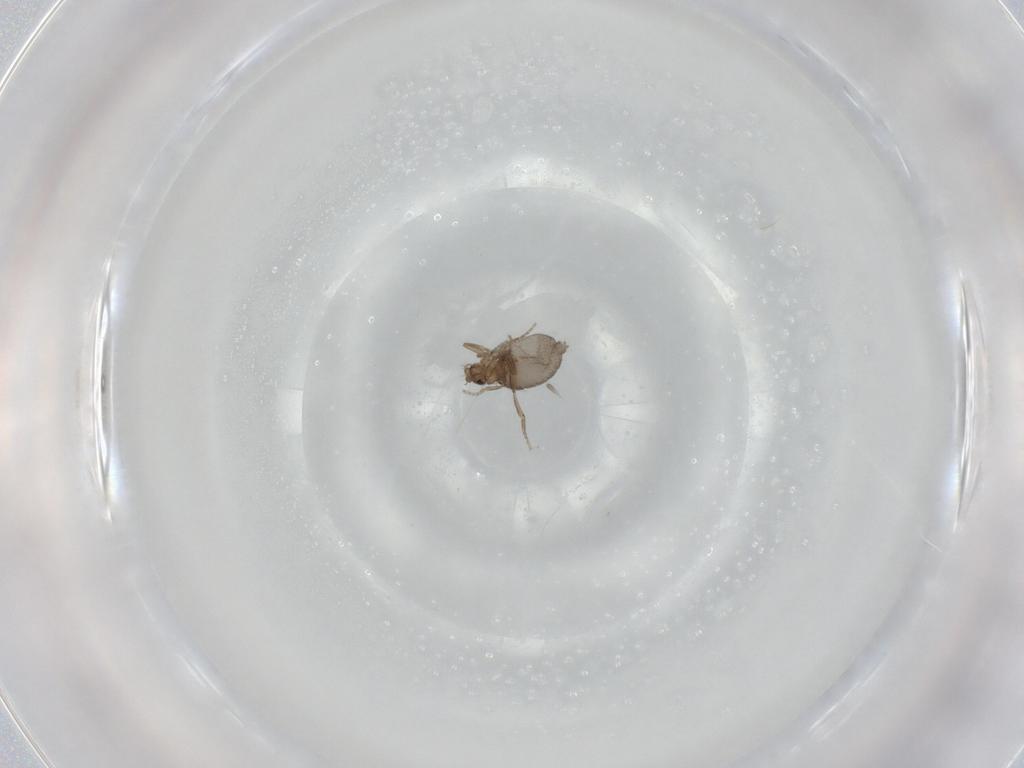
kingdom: Animalia
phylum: Arthropoda
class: Insecta
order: Diptera
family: Phoridae
